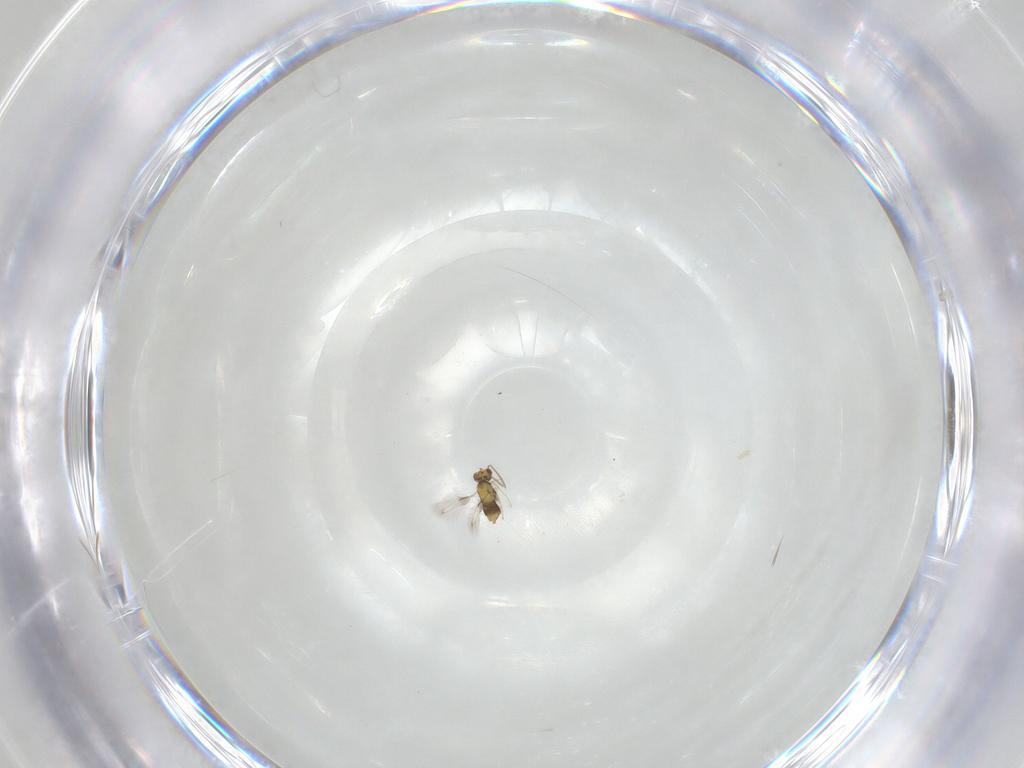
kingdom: Animalia
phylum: Arthropoda
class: Insecta
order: Hymenoptera
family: Aphelinidae
